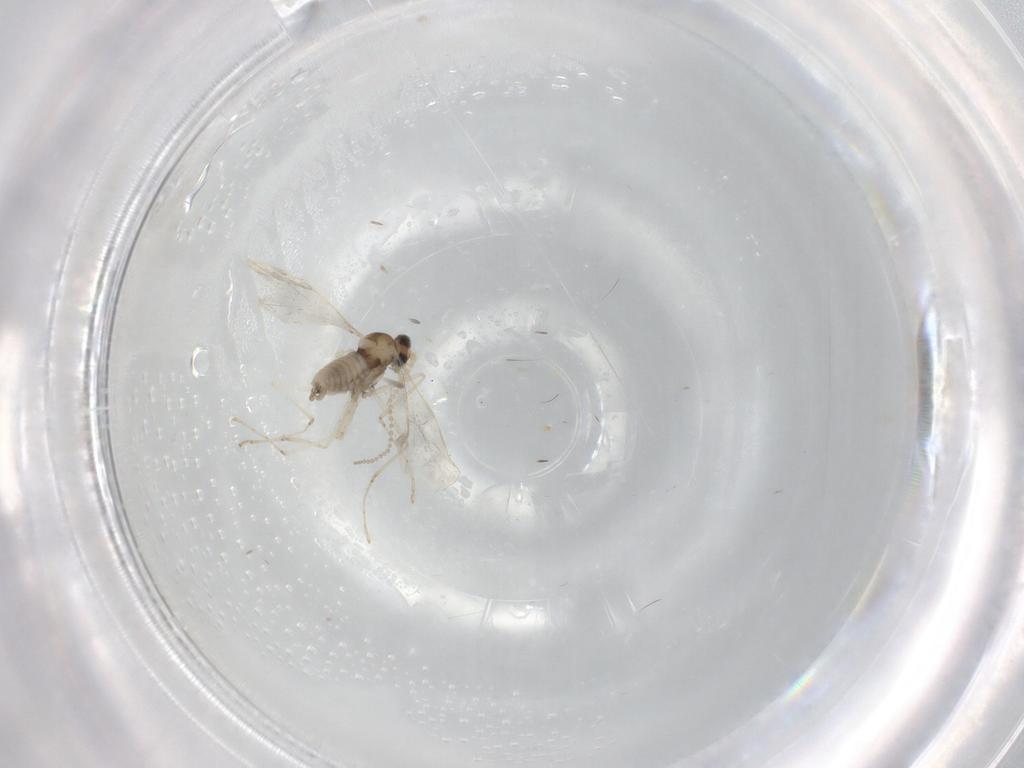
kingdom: Animalia
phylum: Arthropoda
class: Insecta
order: Diptera
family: Cecidomyiidae
